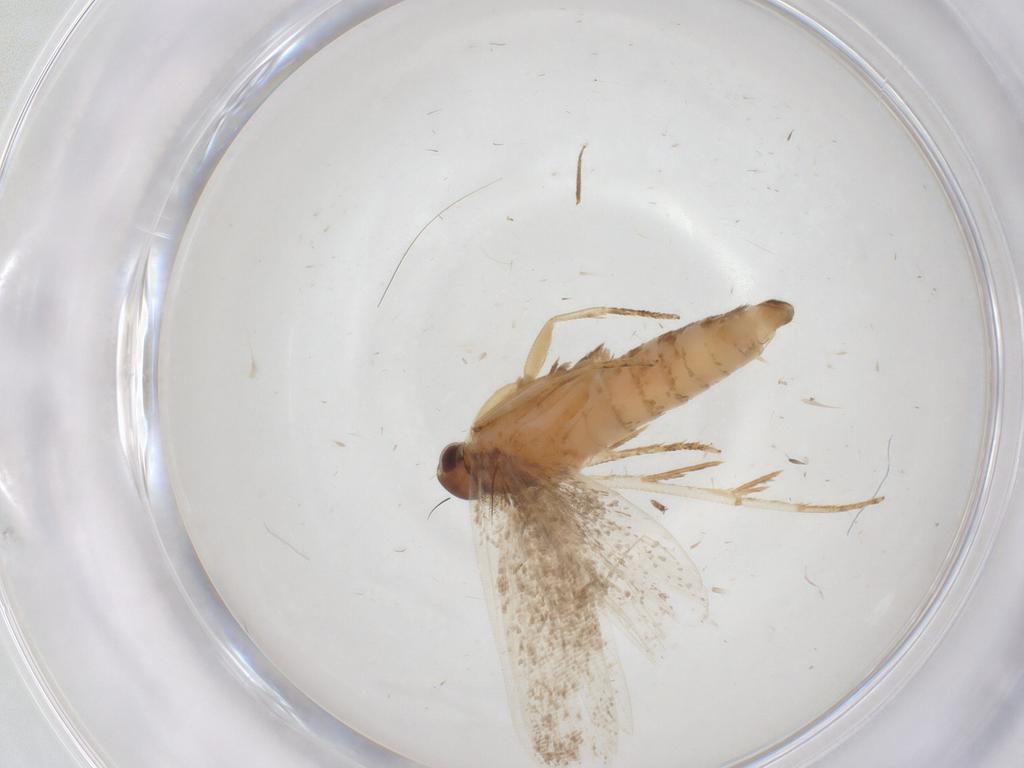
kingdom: Animalia
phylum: Arthropoda
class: Insecta
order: Lepidoptera
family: Gelechiidae
